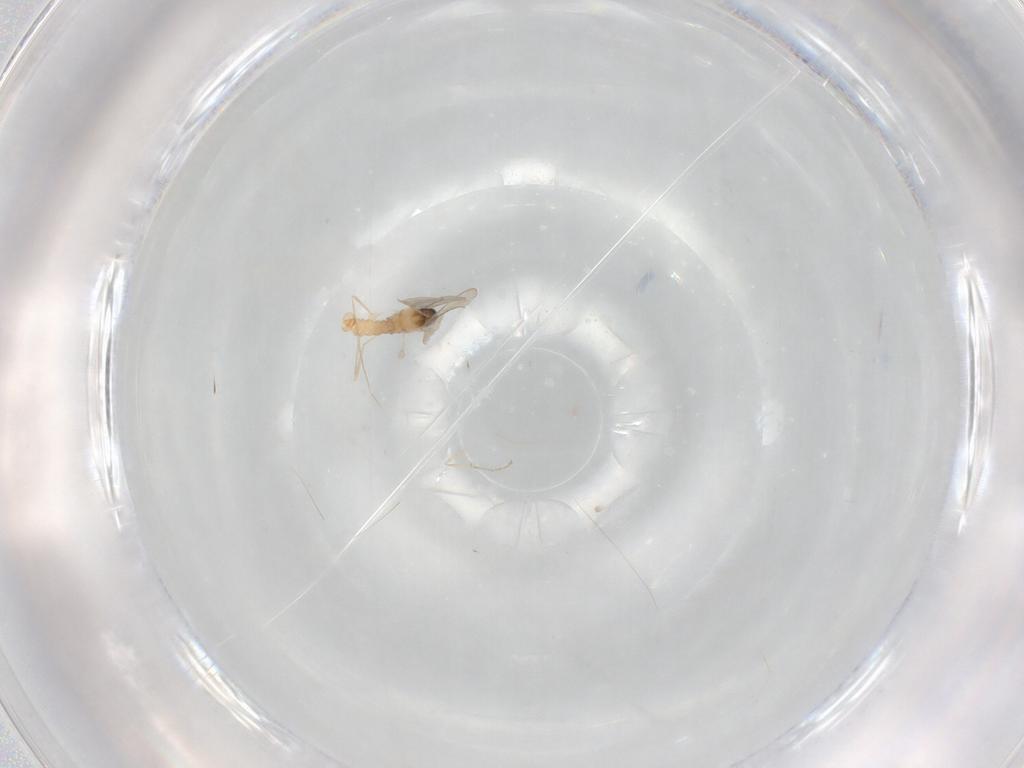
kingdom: Animalia
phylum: Arthropoda
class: Insecta
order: Diptera
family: Cecidomyiidae
